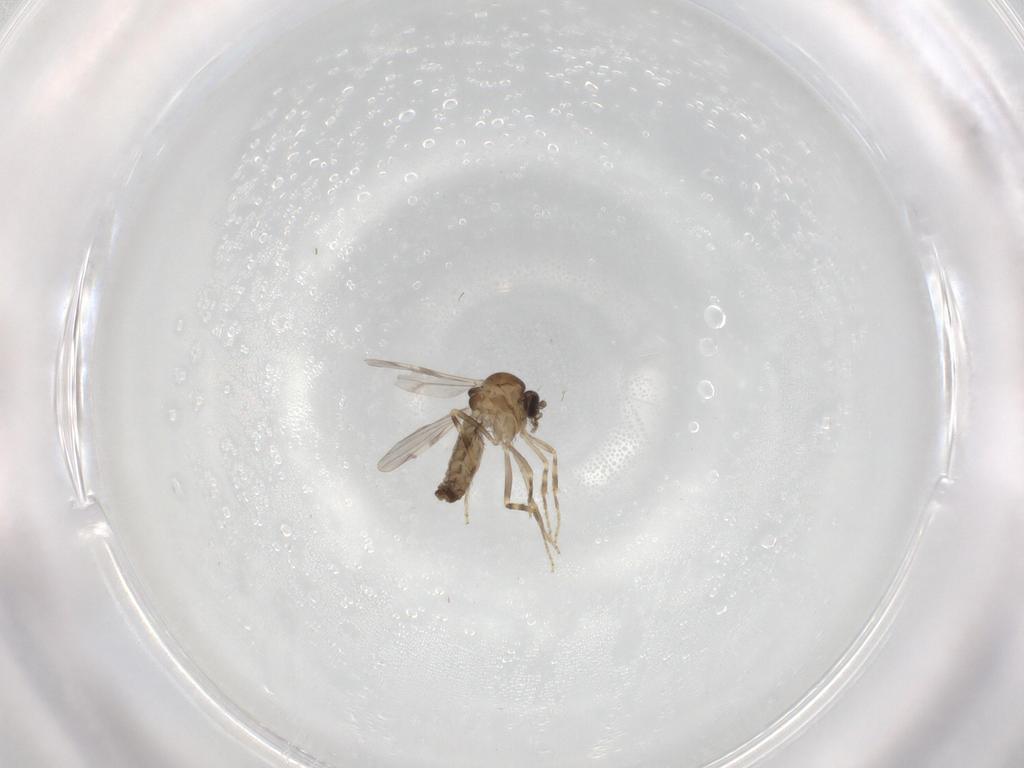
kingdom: Animalia
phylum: Arthropoda
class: Insecta
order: Diptera
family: Ceratopogonidae
